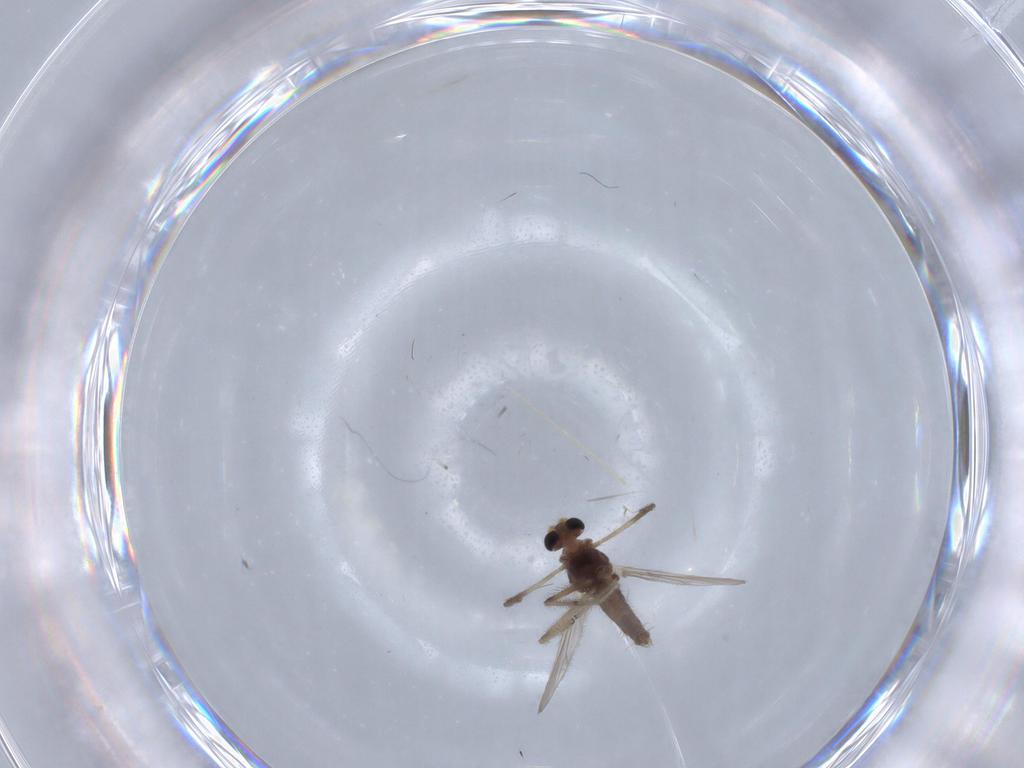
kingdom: Animalia
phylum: Arthropoda
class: Insecta
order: Diptera
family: Chironomidae
